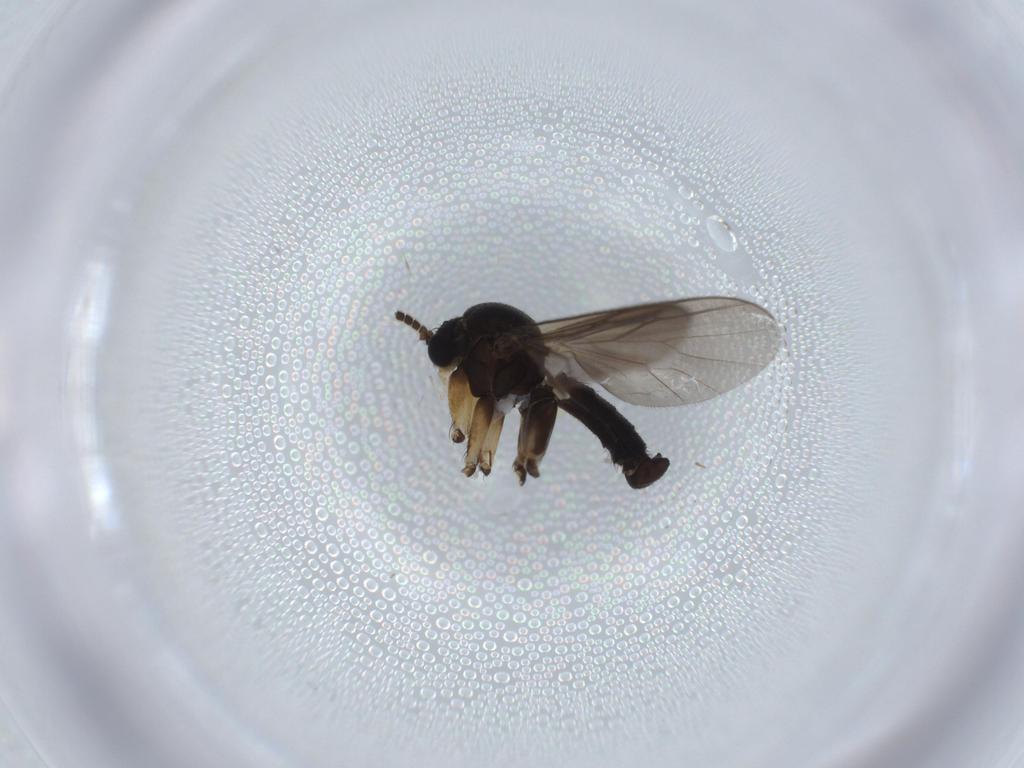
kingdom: Animalia
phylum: Arthropoda
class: Insecta
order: Diptera
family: Mycetophilidae
